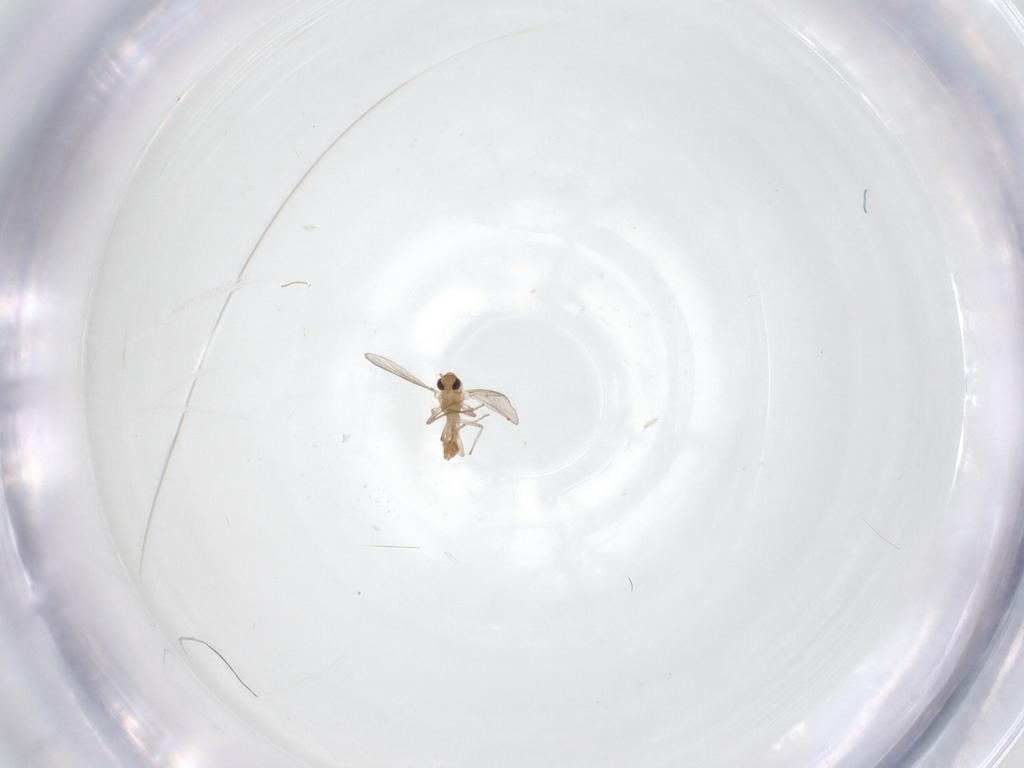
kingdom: Animalia
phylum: Arthropoda
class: Insecta
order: Diptera
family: Chironomidae
